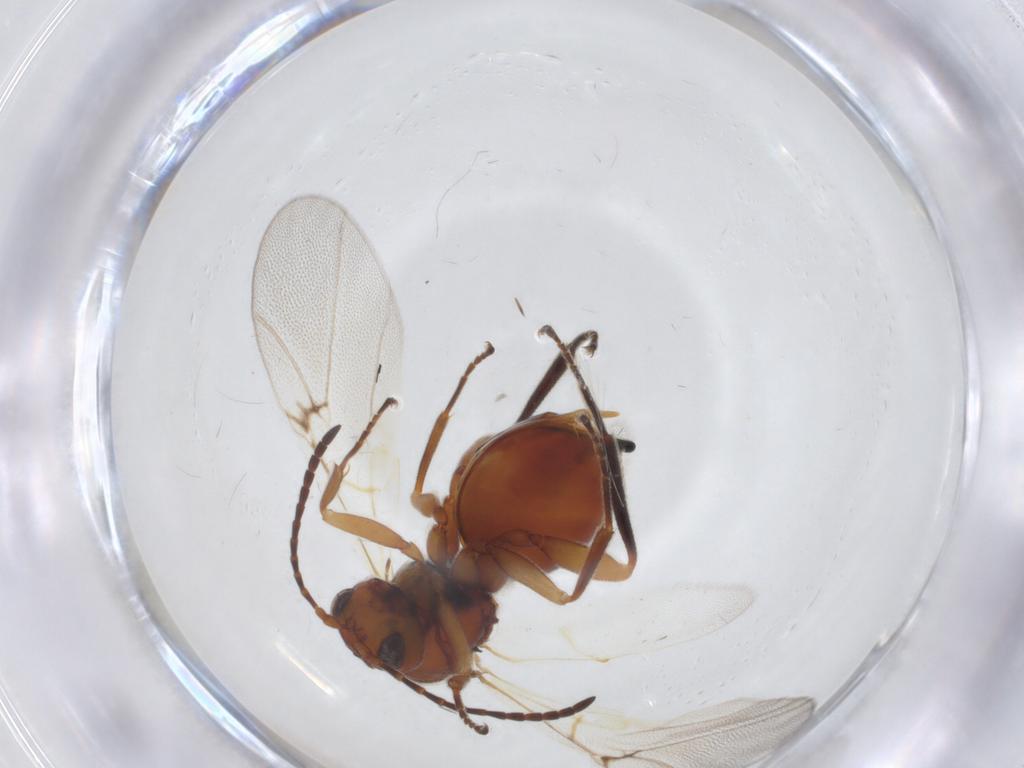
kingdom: Animalia
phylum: Arthropoda
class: Insecta
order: Hymenoptera
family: Cynipidae
